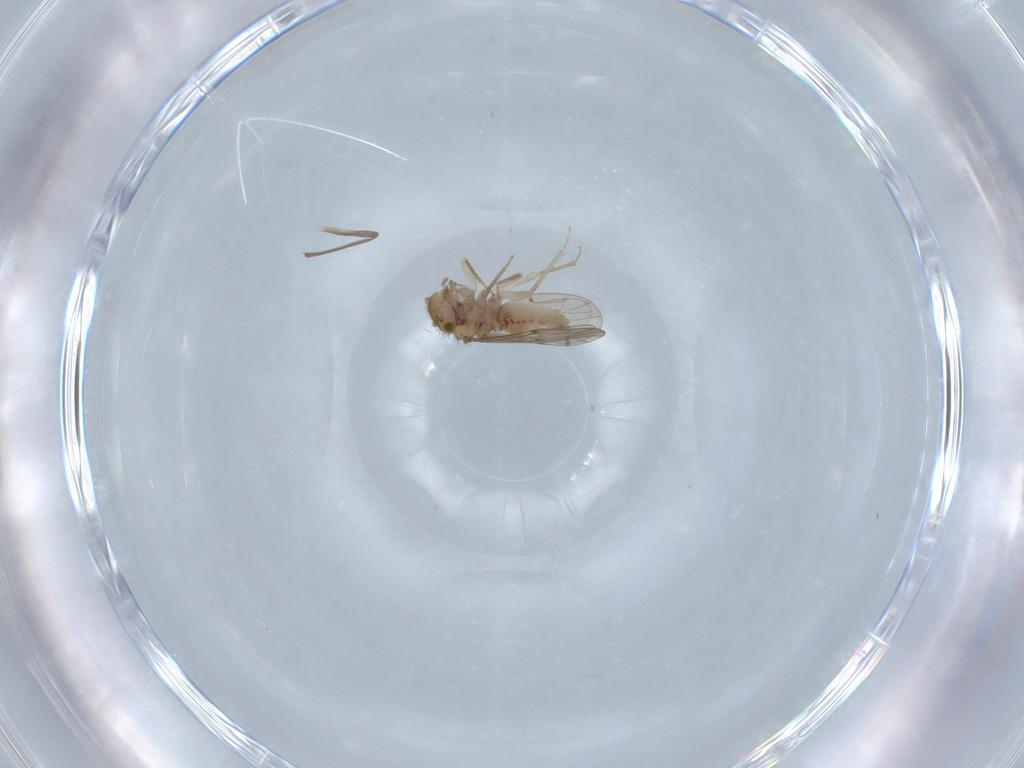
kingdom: Animalia
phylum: Arthropoda
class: Insecta
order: Psocodea
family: Ectopsocidae
